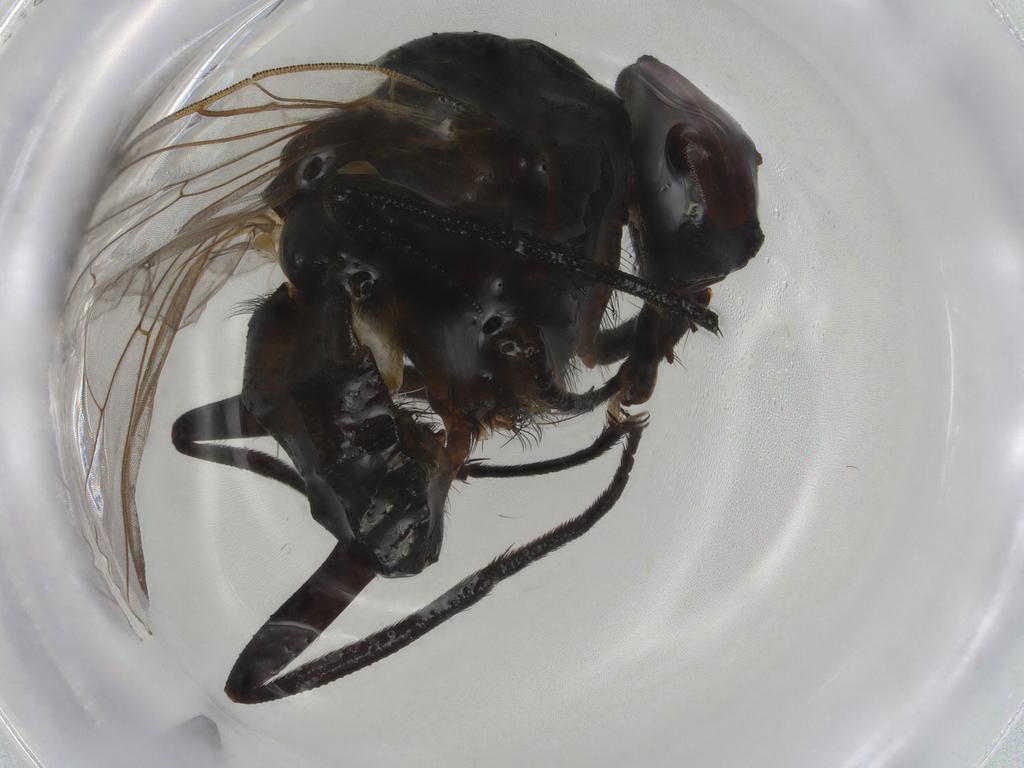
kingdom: Animalia
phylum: Arthropoda
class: Insecta
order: Diptera
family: Anthomyiidae
